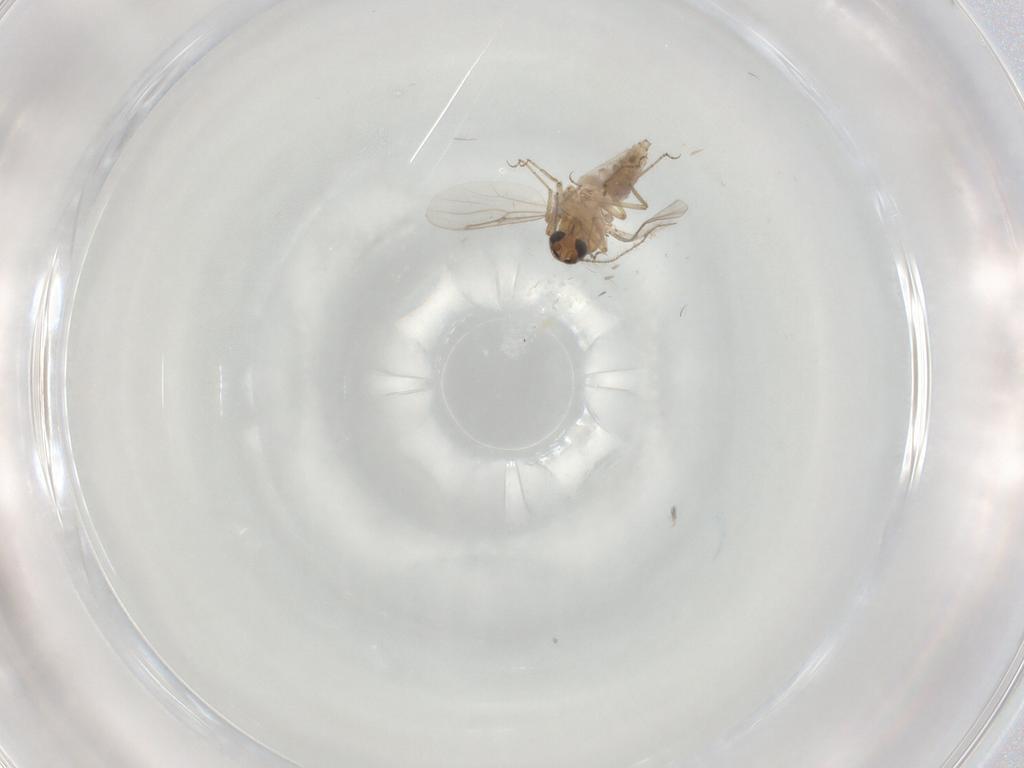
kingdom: Animalia
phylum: Arthropoda
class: Insecta
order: Diptera
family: Ceratopogonidae
